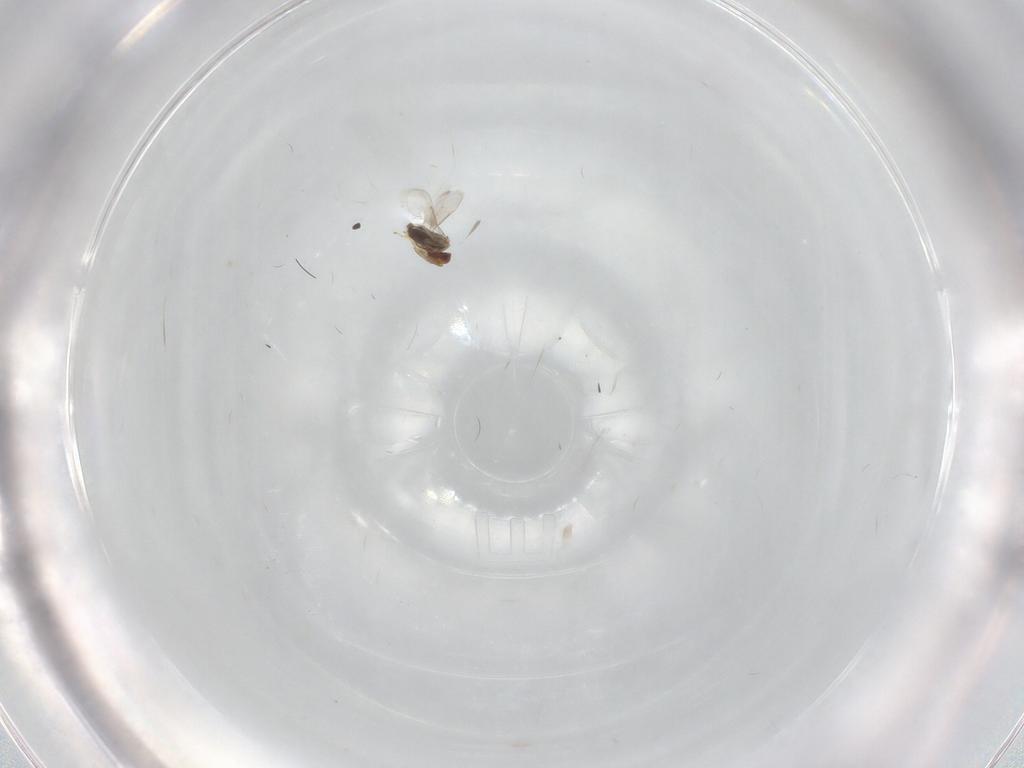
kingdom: Animalia
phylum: Arthropoda
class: Insecta
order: Hymenoptera
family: Aphelinidae
